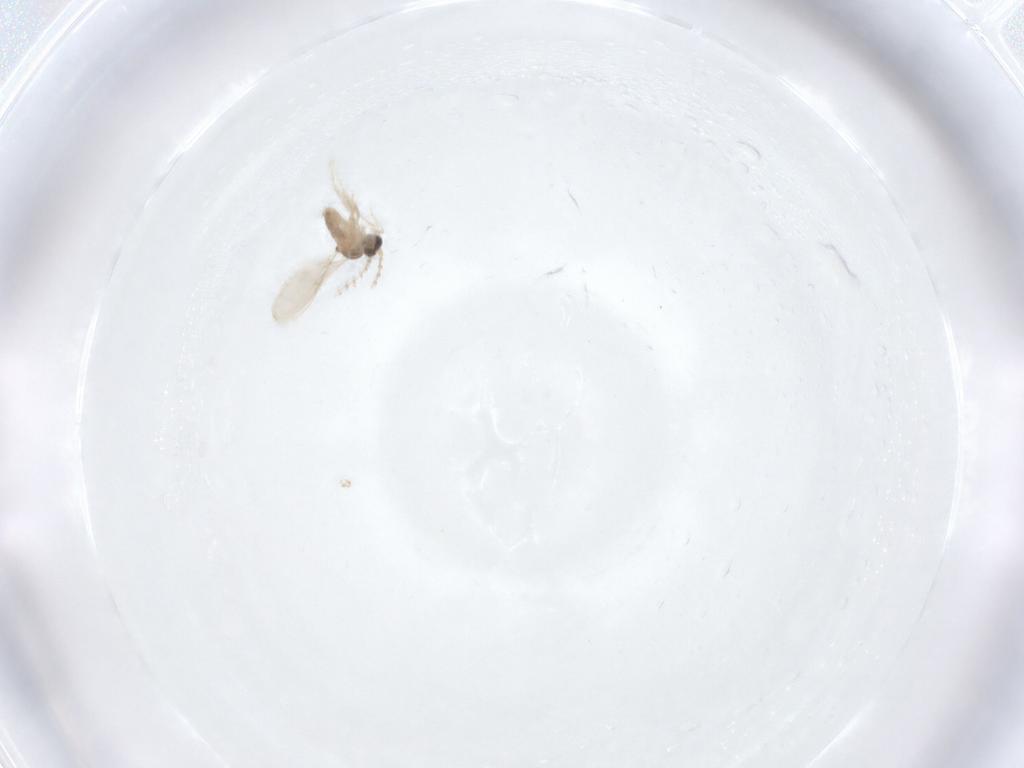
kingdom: Animalia
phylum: Arthropoda
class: Insecta
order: Diptera
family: Cecidomyiidae
